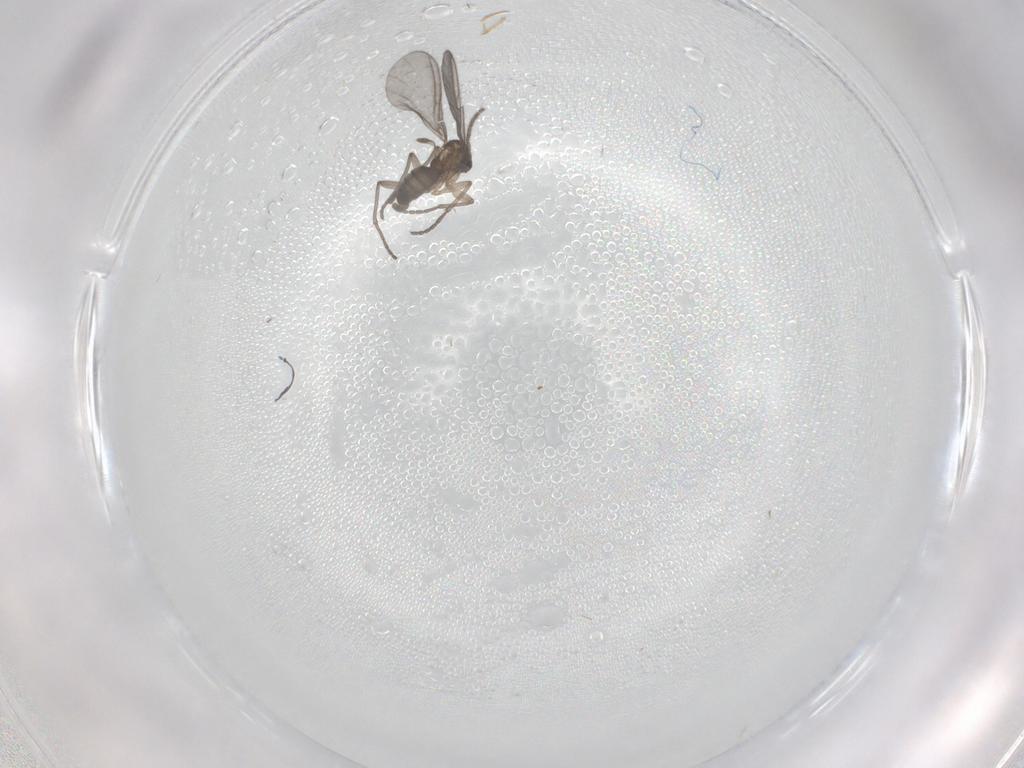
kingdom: Animalia
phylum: Arthropoda
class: Insecta
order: Diptera
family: Sciaridae
